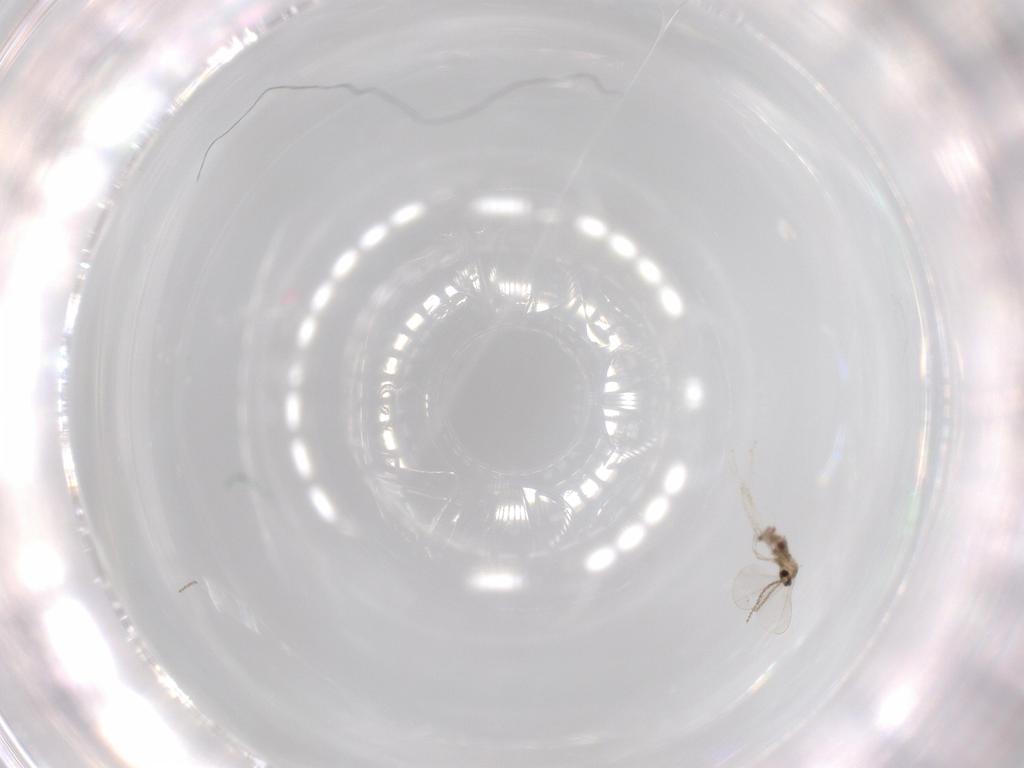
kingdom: Animalia
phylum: Arthropoda
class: Insecta
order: Diptera
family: Cecidomyiidae
